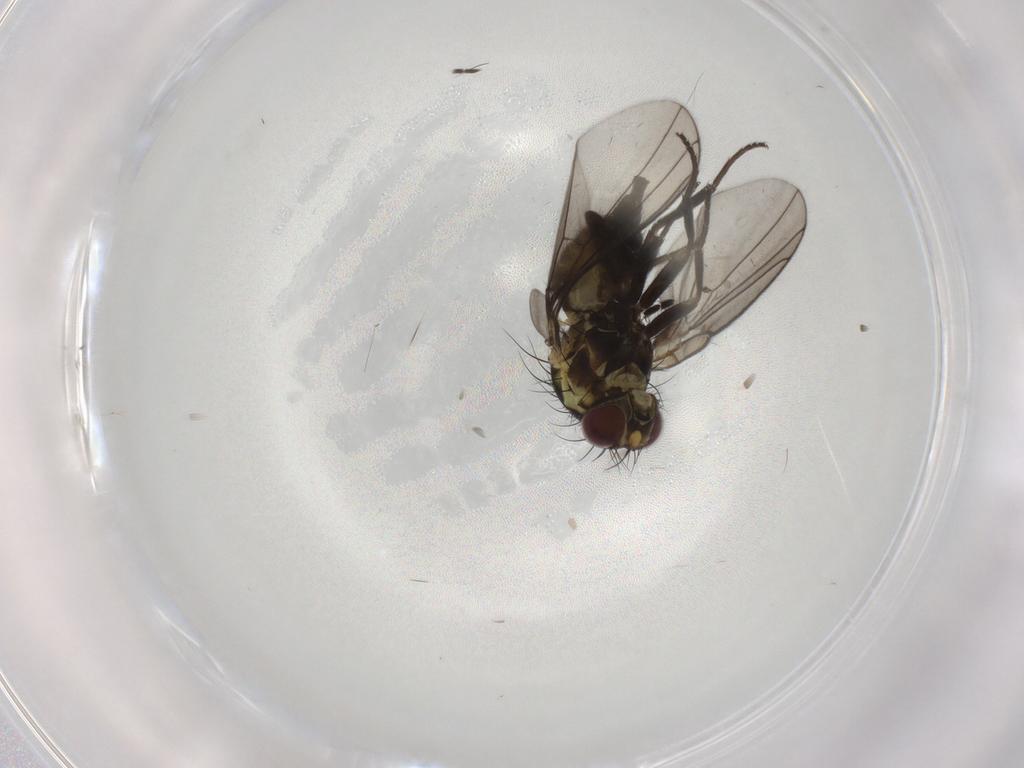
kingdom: Animalia
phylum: Arthropoda
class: Insecta
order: Diptera
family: Agromyzidae
